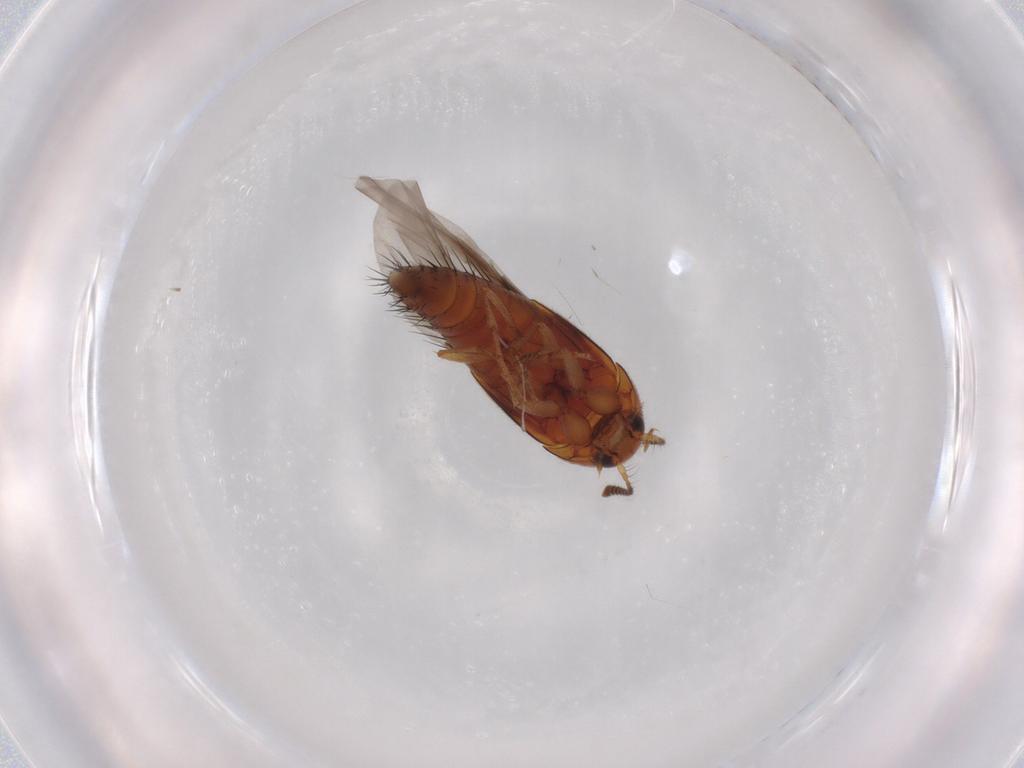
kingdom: Animalia
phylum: Arthropoda
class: Insecta
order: Coleoptera
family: Staphylinidae
